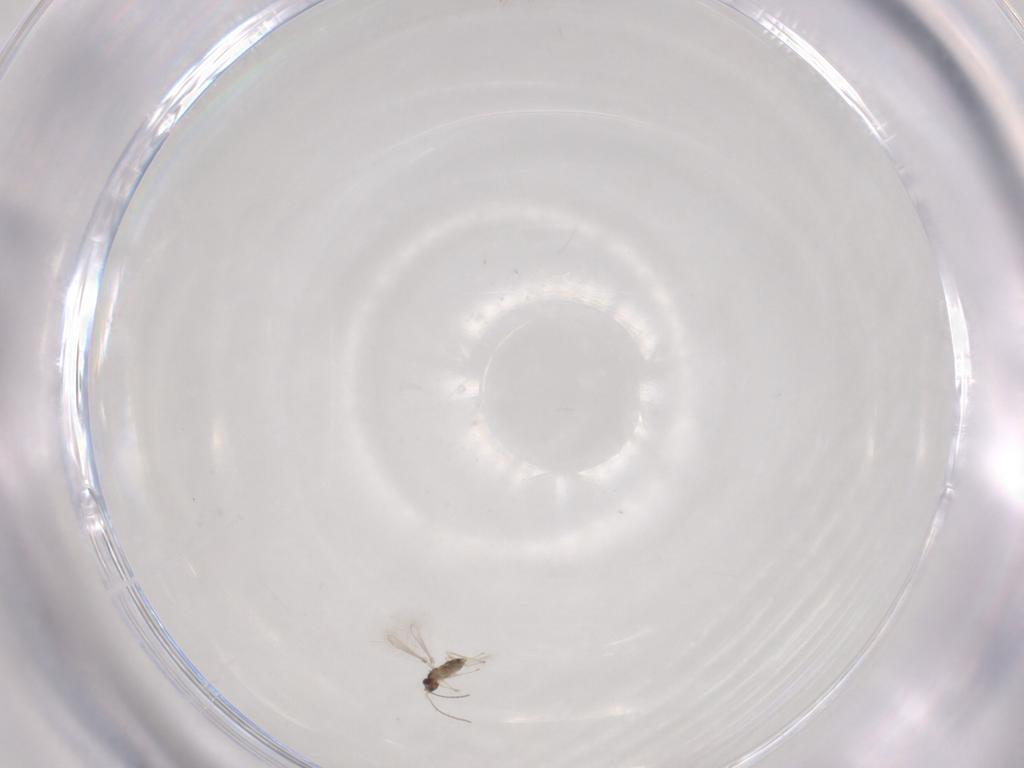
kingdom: Animalia
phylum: Arthropoda
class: Insecta
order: Hymenoptera
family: Mymaridae
